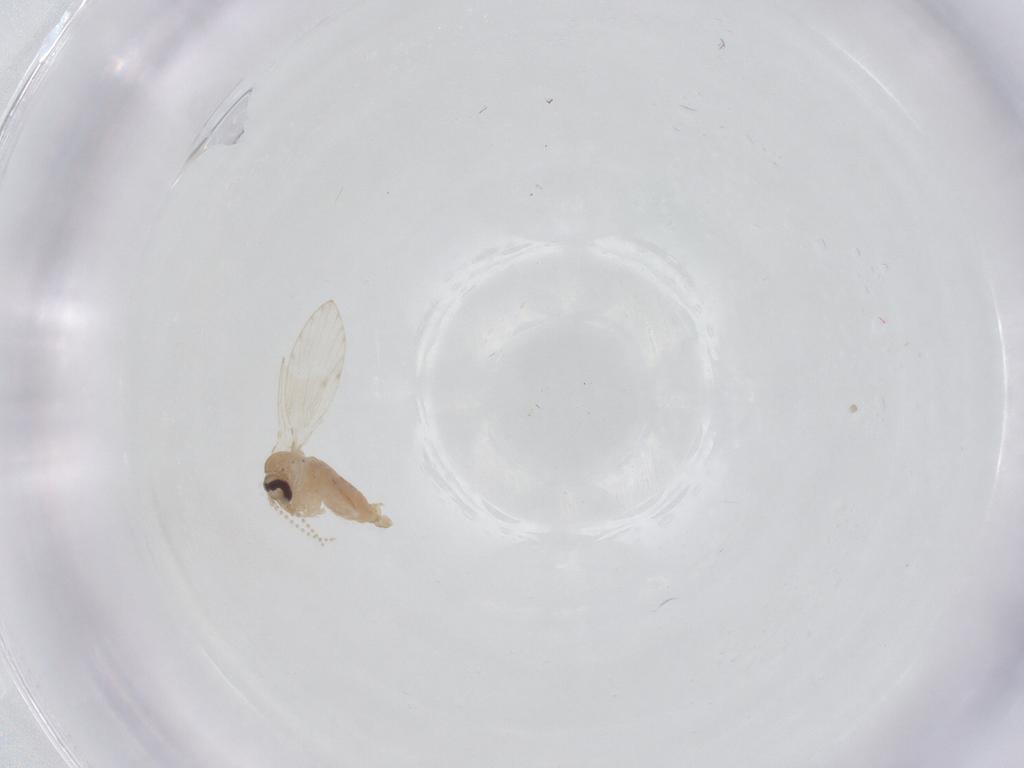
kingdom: Animalia
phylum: Arthropoda
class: Insecta
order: Diptera
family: Psychodidae
